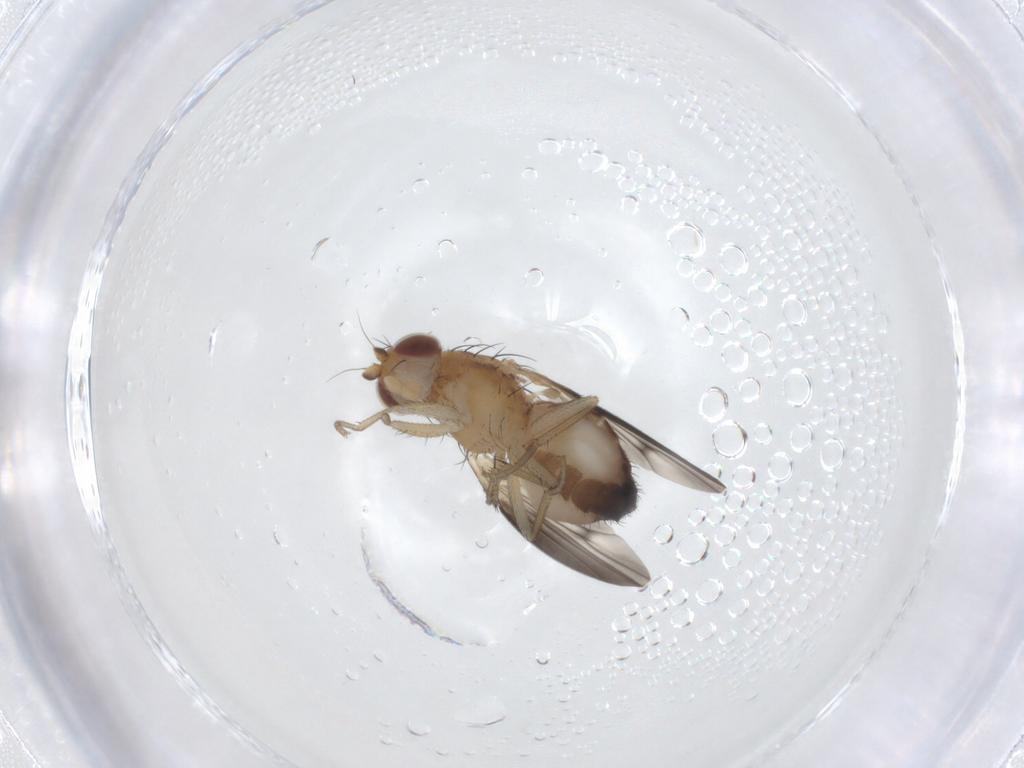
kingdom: Animalia
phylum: Arthropoda
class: Insecta
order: Diptera
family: Heleomyzidae
